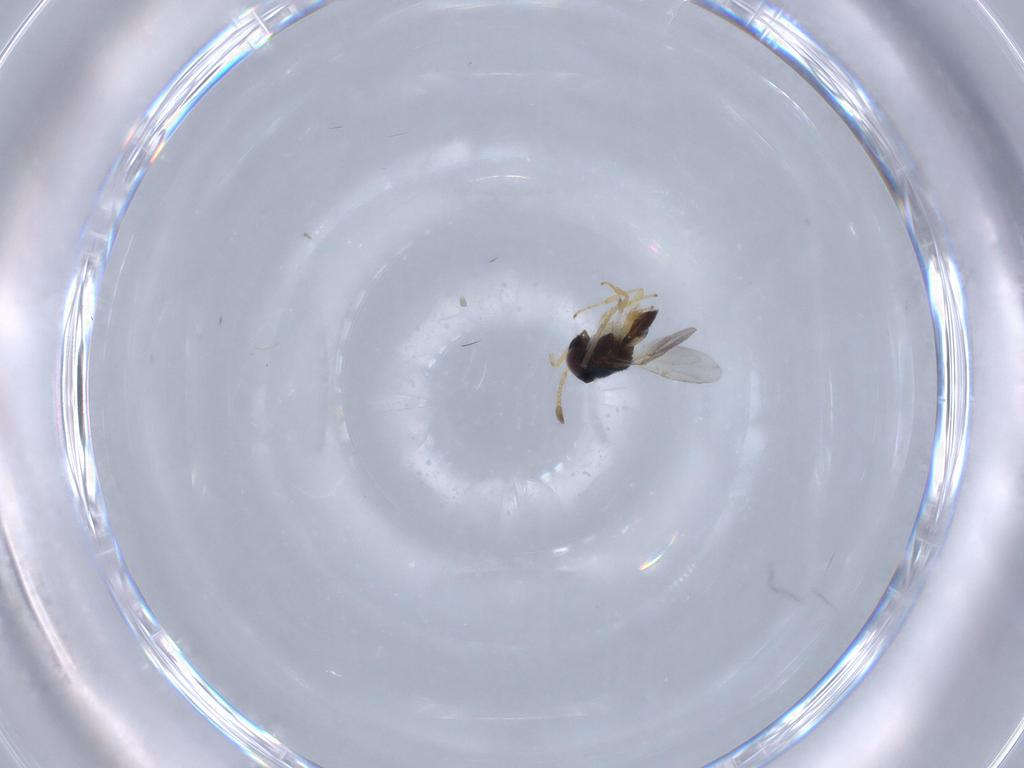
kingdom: Animalia
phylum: Arthropoda
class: Insecta
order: Hymenoptera
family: Encyrtidae
